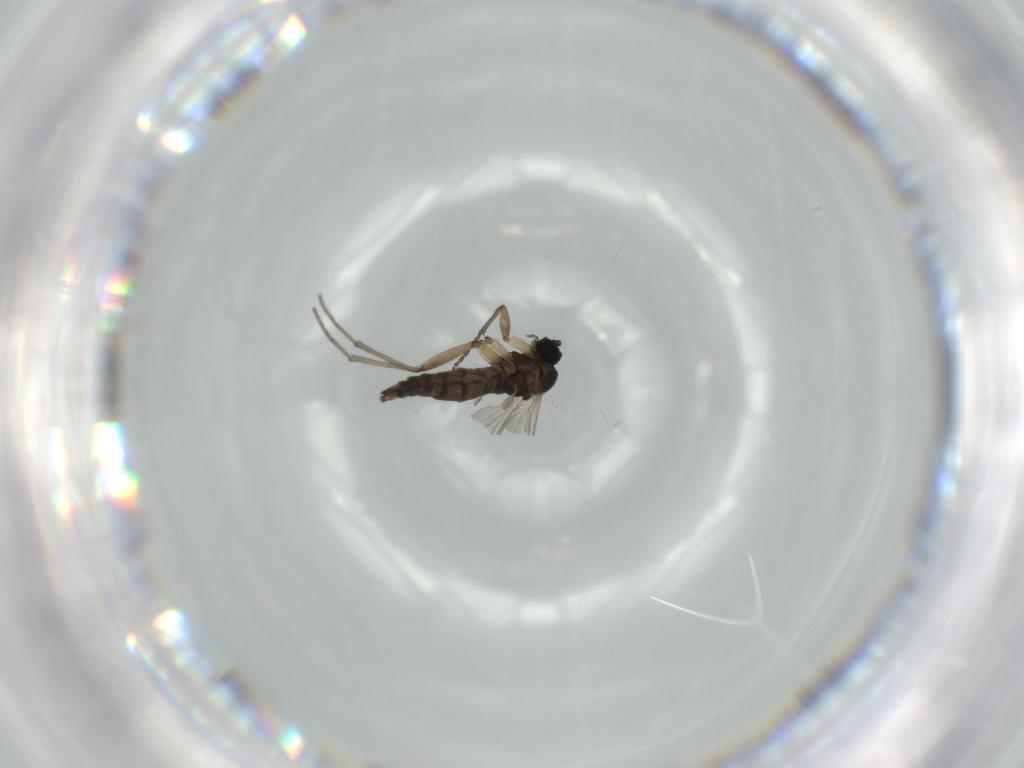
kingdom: Animalia
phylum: Arthropoda
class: Insecta
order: Diptera
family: Sciaridae
